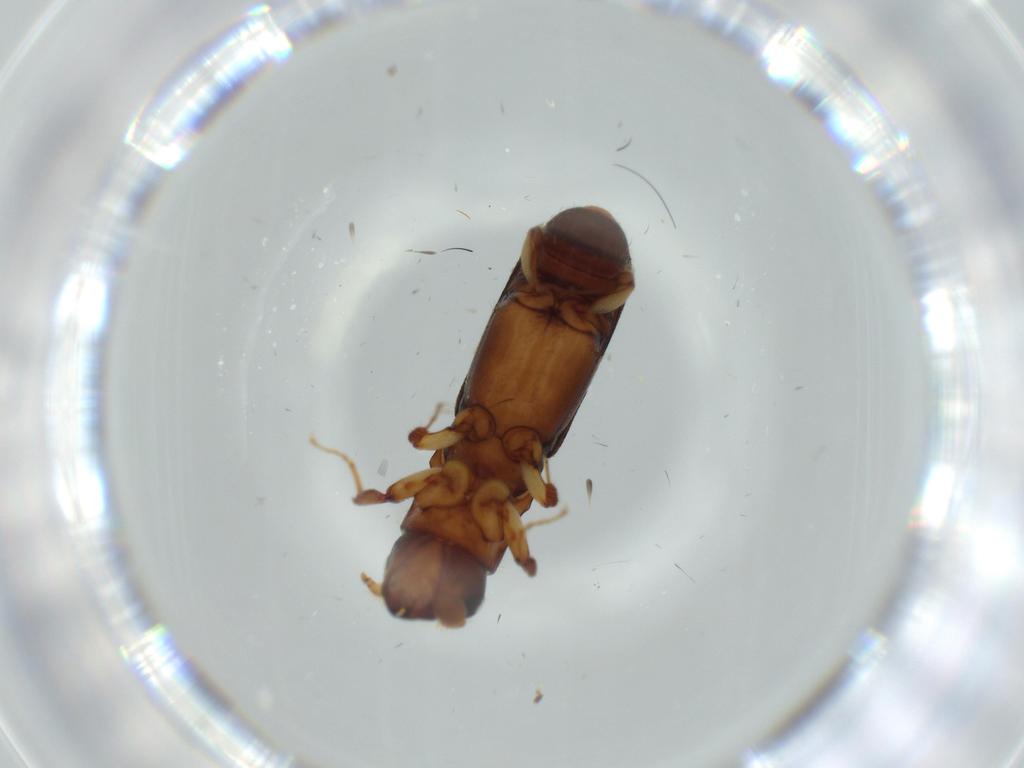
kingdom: Animalia
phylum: Arthropoda
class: Insecta
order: Coleoptera
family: Curculionidae
